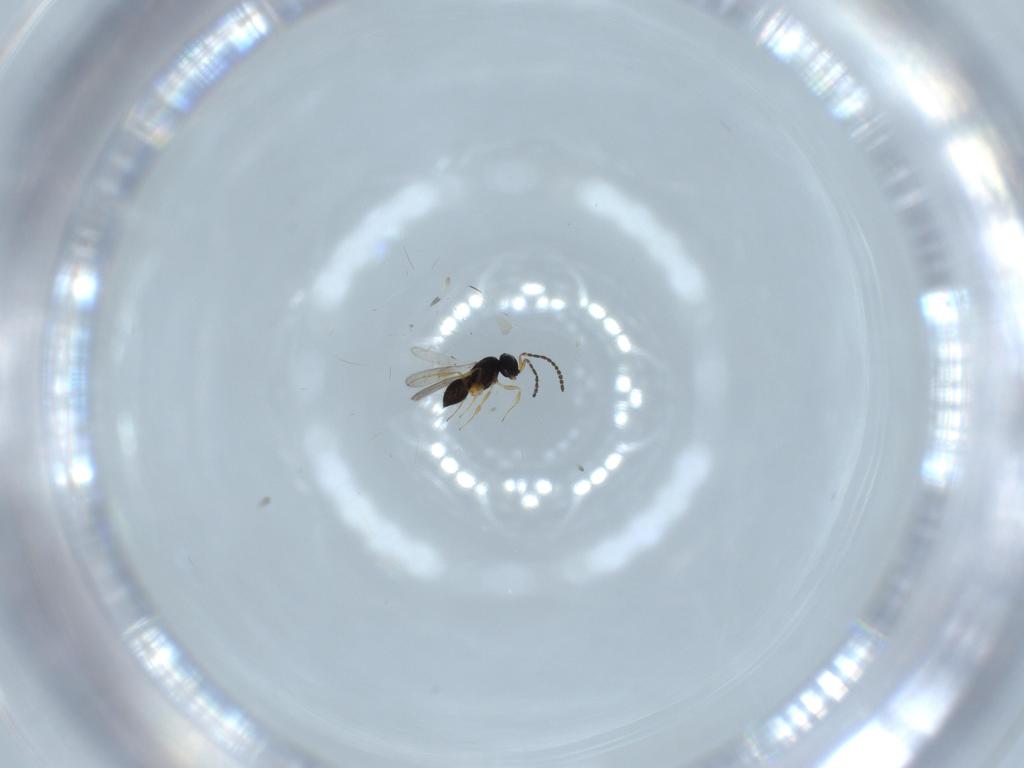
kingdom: Animalia
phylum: Arthropoda
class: Insecta
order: Hymenoptera
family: Scelionidae
